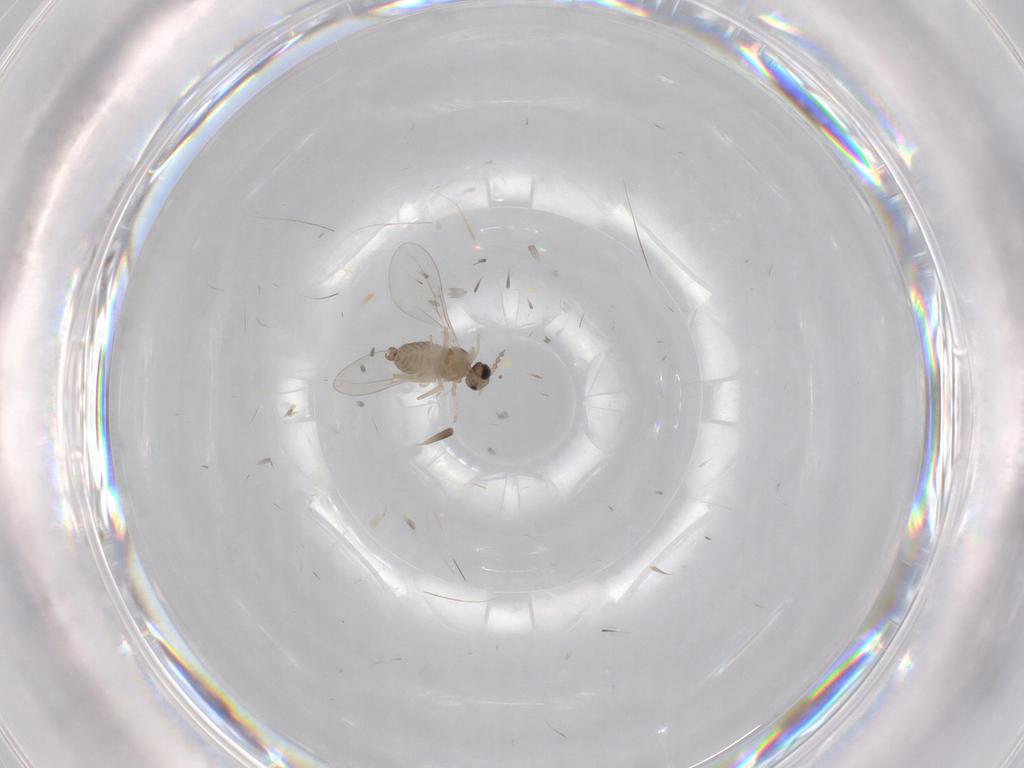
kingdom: Animalia
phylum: Arthropoda
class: Insecta
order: Diptera
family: Cecidomyiidae
